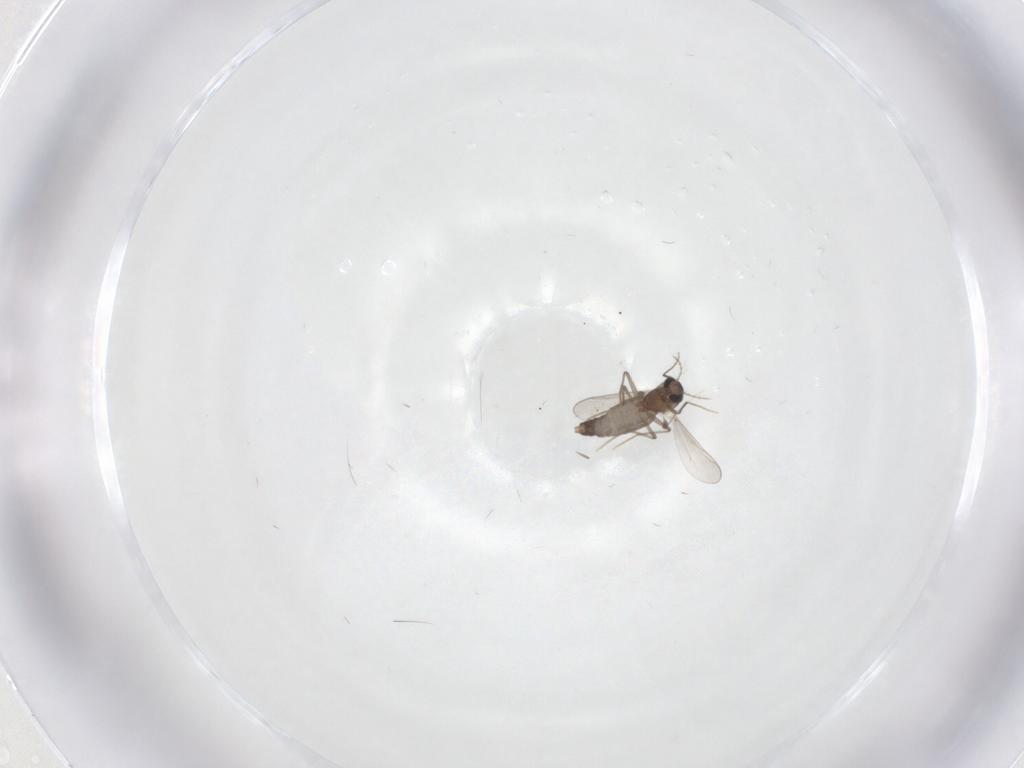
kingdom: Animalia
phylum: Arthropoda
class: Insecta
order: Diptera
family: Chironomidae
